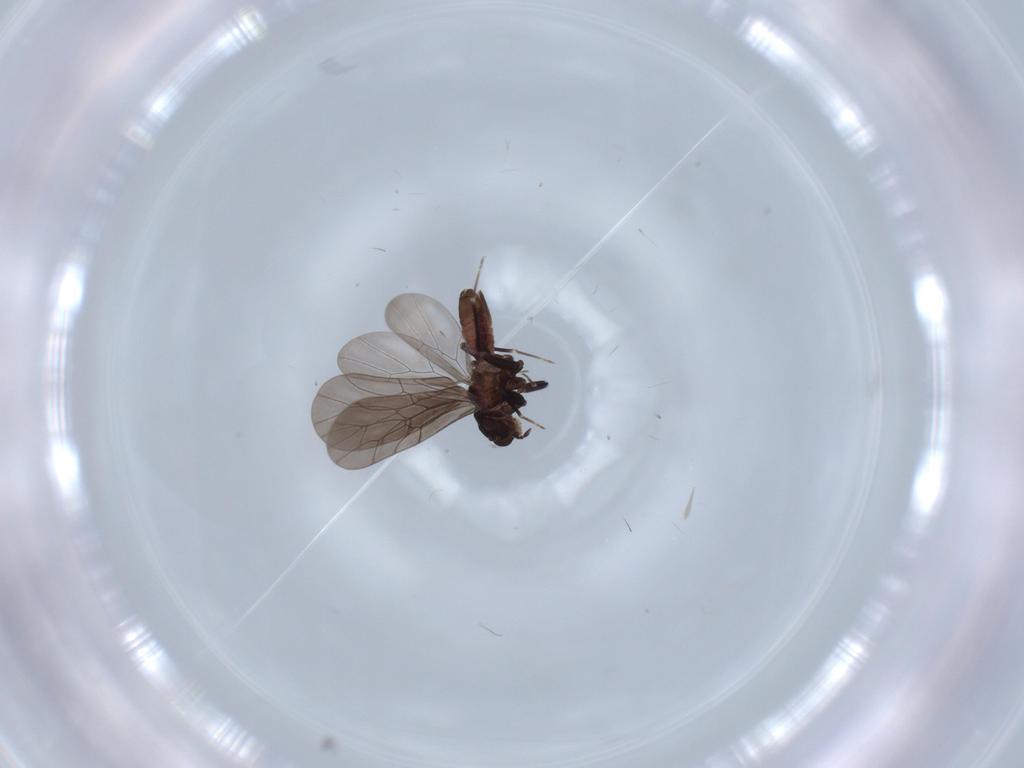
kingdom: Animalia
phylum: Arthropoda
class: Insecta
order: Psocodea
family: Lepidopsocidae
